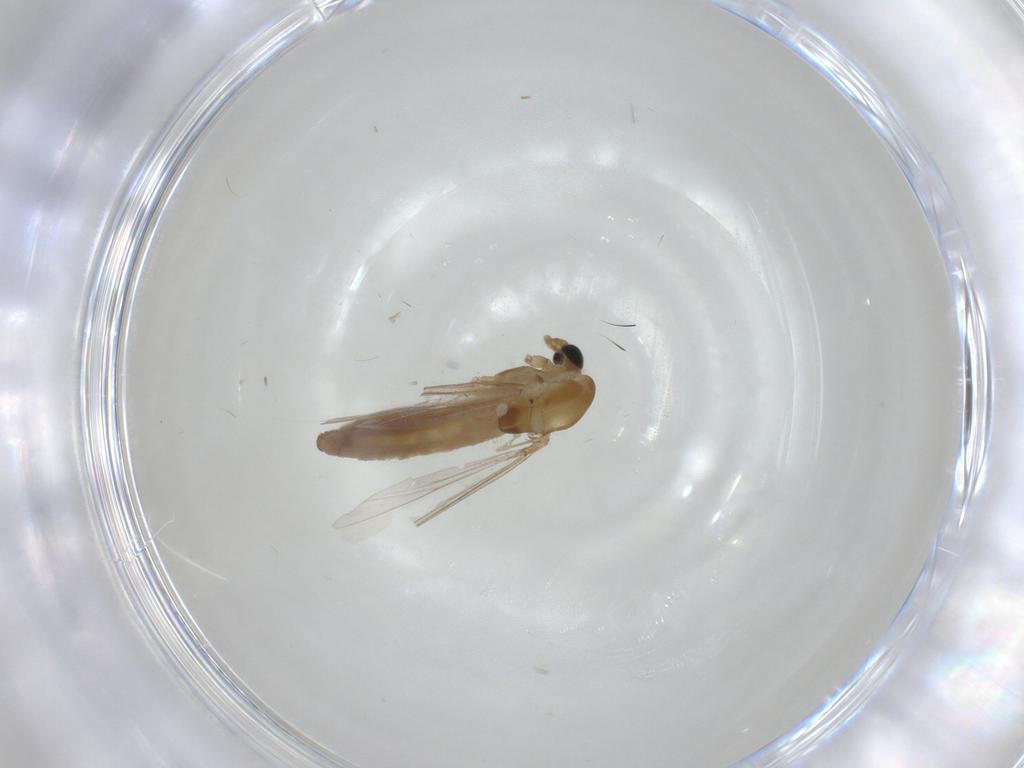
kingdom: Animalia
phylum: Arthropoda
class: Insecta
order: Diptera
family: Chironomidae
